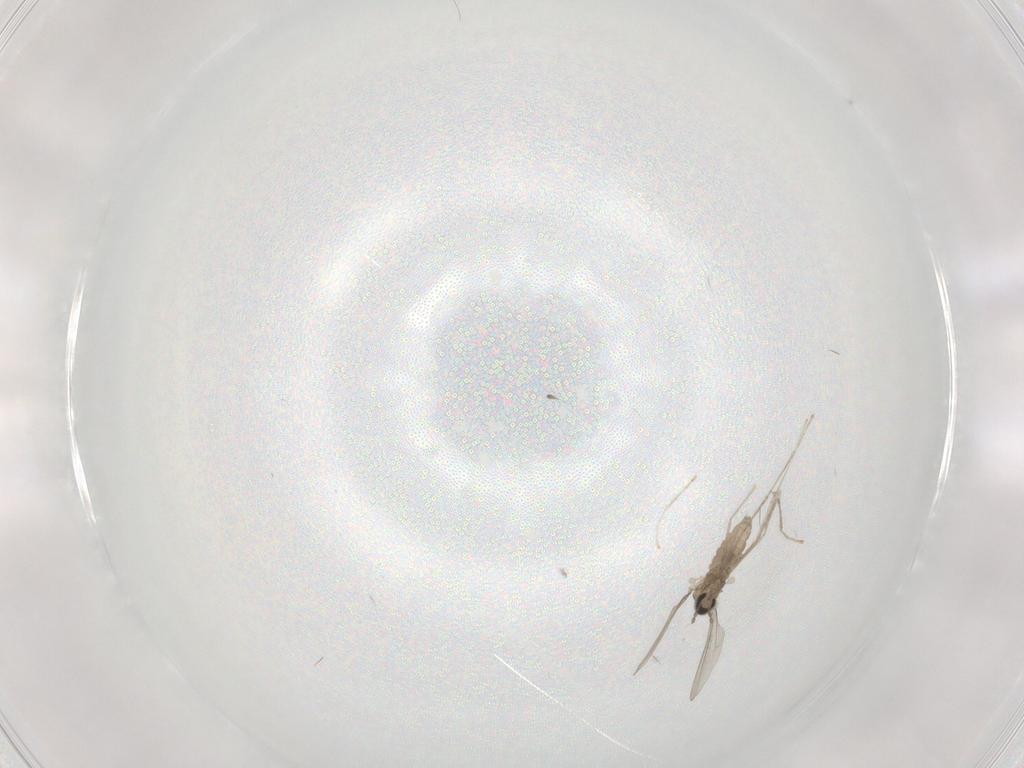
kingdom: Animalia
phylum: Arthropoda
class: Insecta
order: Diptera
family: Cecidomyiidae
